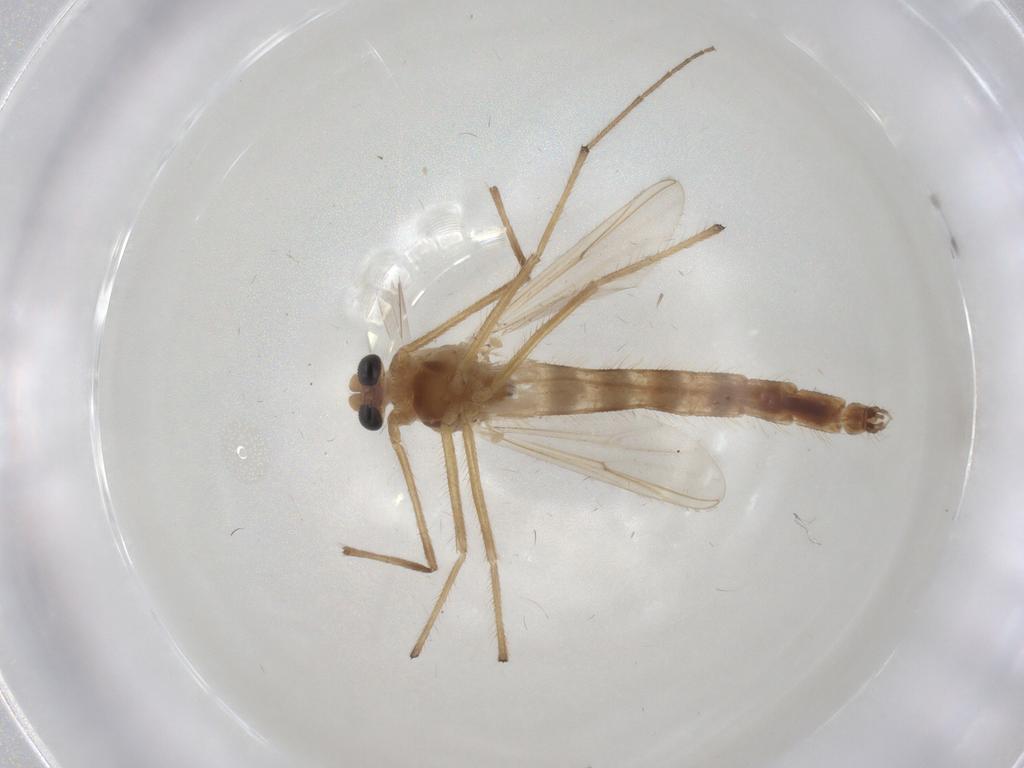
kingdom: Animalia
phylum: Arthropoda
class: Insecta
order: Diptera
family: Chironomidae
